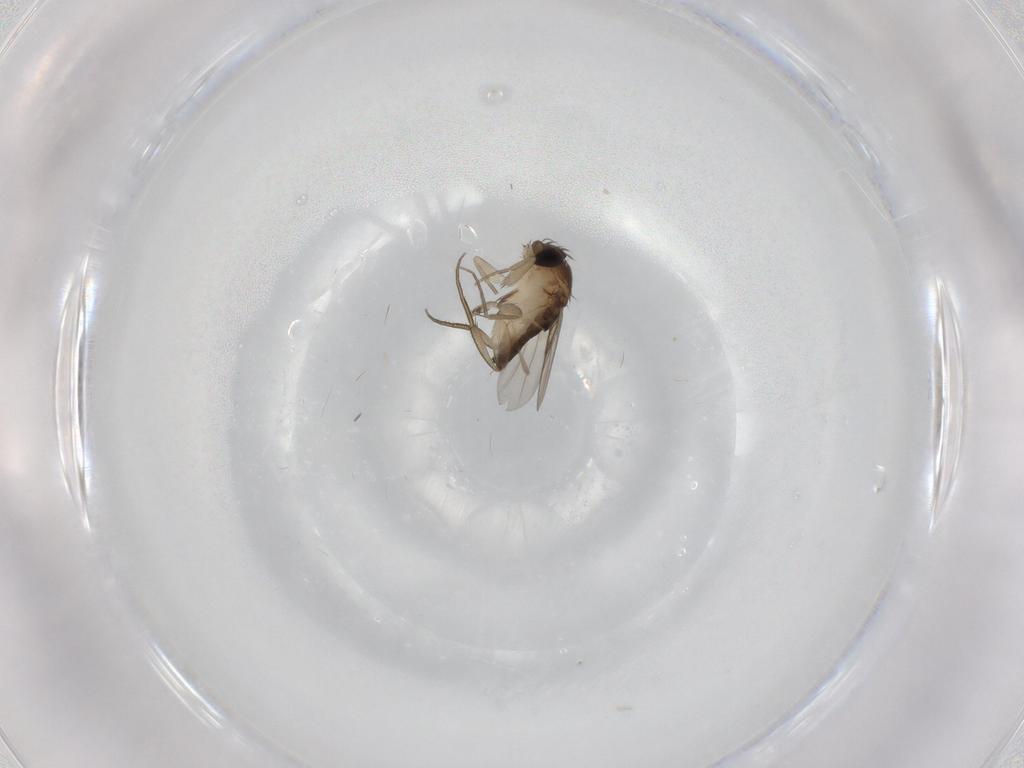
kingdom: Animalia
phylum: Arthropoda
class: Insecta
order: Diptera
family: Phoridae
